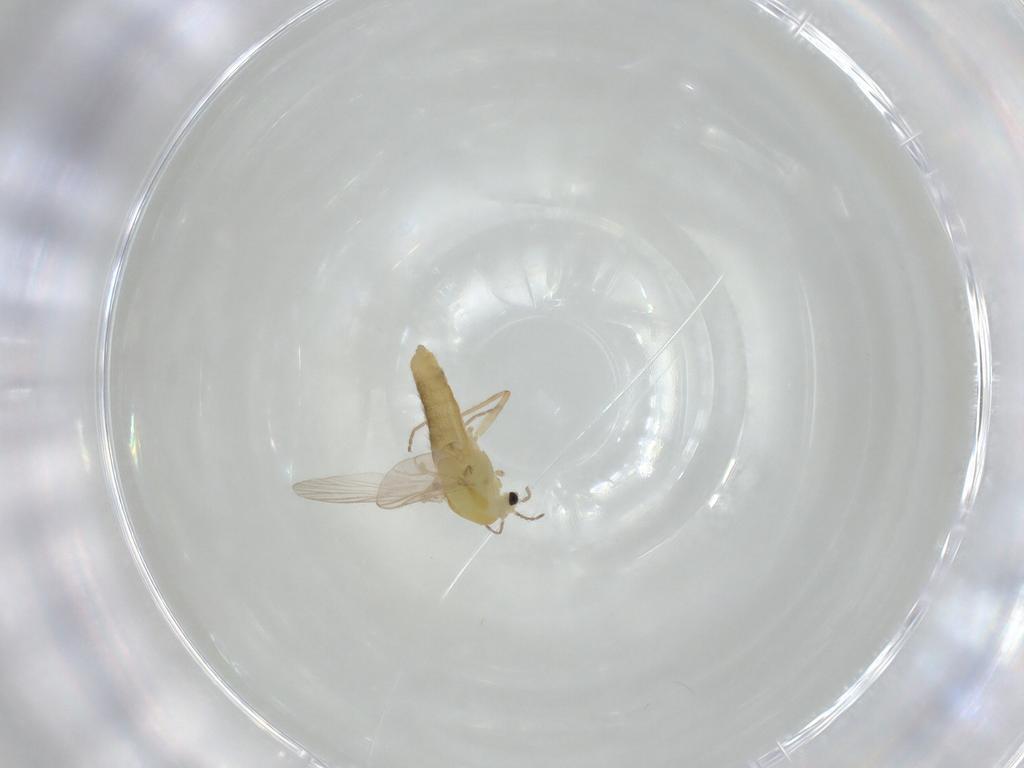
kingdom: Animalia
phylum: Arthropoda
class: Insecta
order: Diptera
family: Chironomidae
